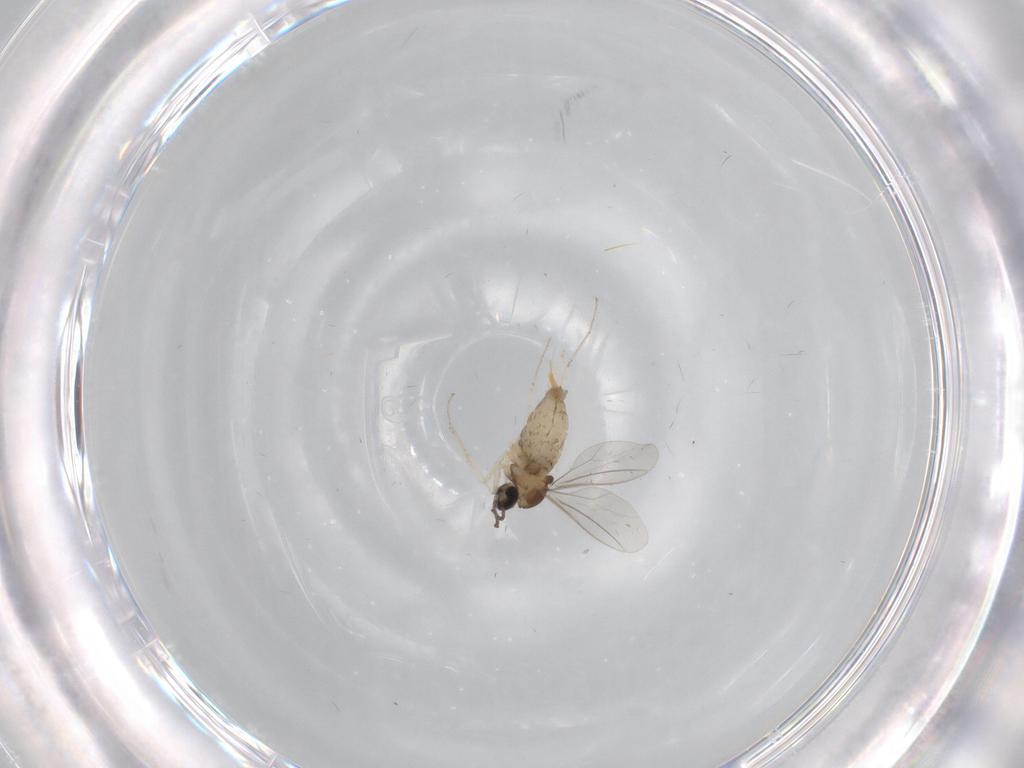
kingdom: Animalia
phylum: Arthropoda
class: Insecta
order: Diptera
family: Cecidomyiidae
